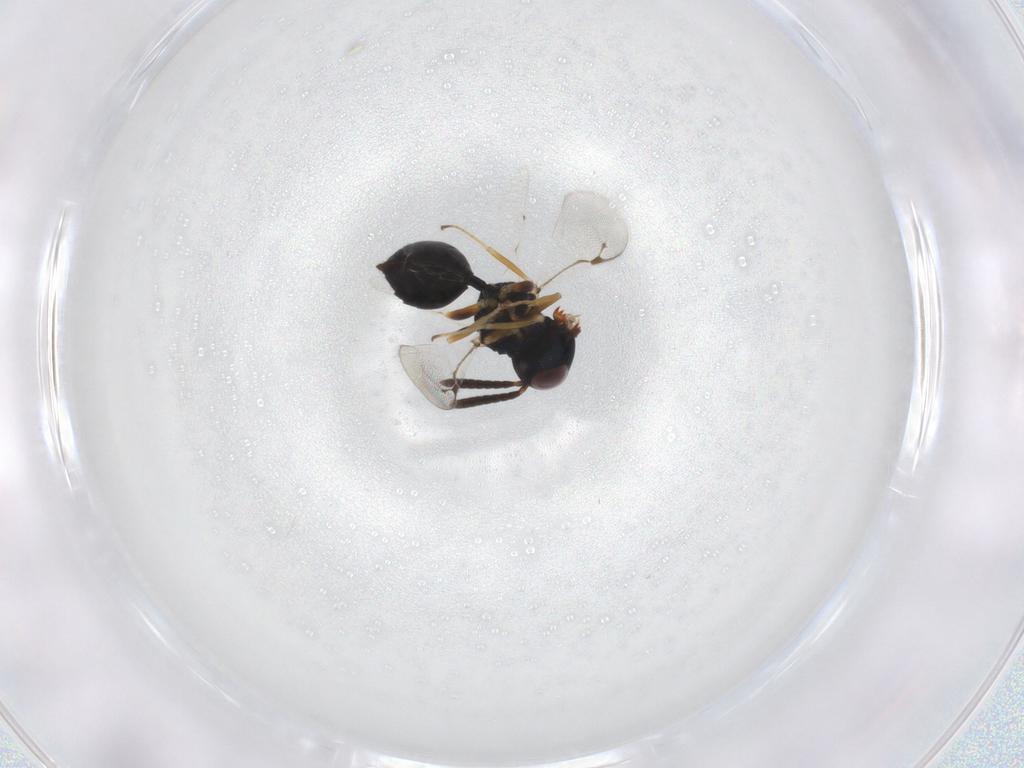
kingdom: Animalia
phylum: Arthropoda
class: Insecta
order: Hymenoptera
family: Pteromalidae
